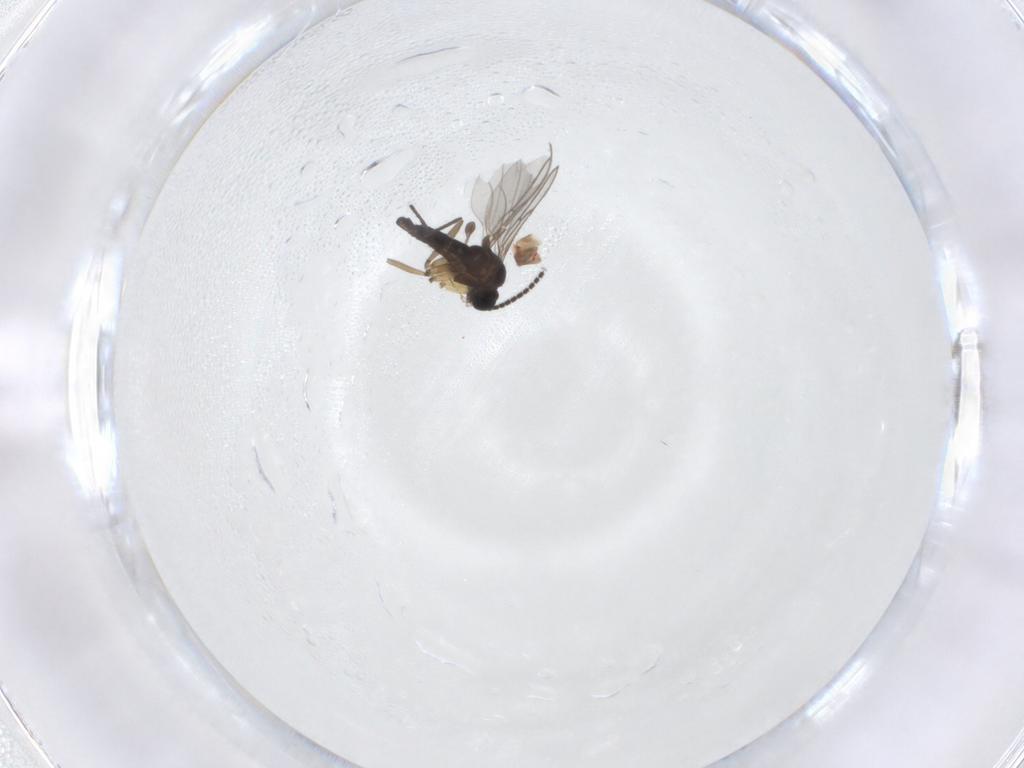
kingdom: Animalia
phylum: Arthropoda
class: Insecta
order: Diptera
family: Sciaridae
